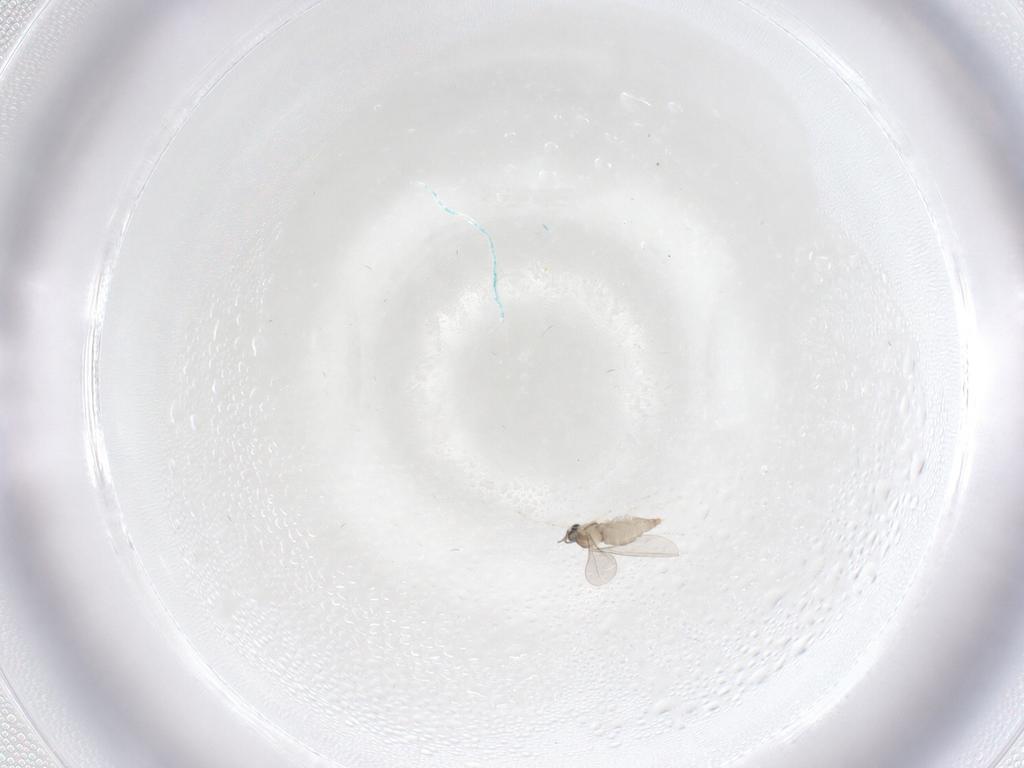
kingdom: Animalia
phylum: Arthropoda
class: Insecta
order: Diptera
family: Cecidomyiidae
